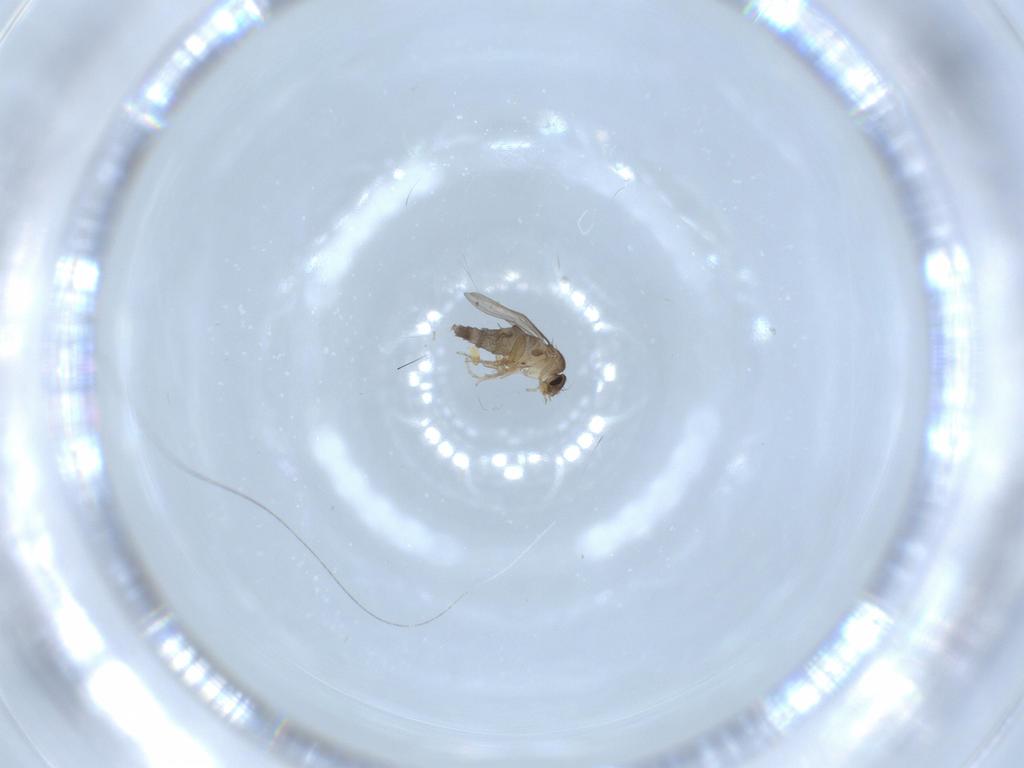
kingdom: Animalia
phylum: Arthropoda
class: Insecta
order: Diptera
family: Phoridae
